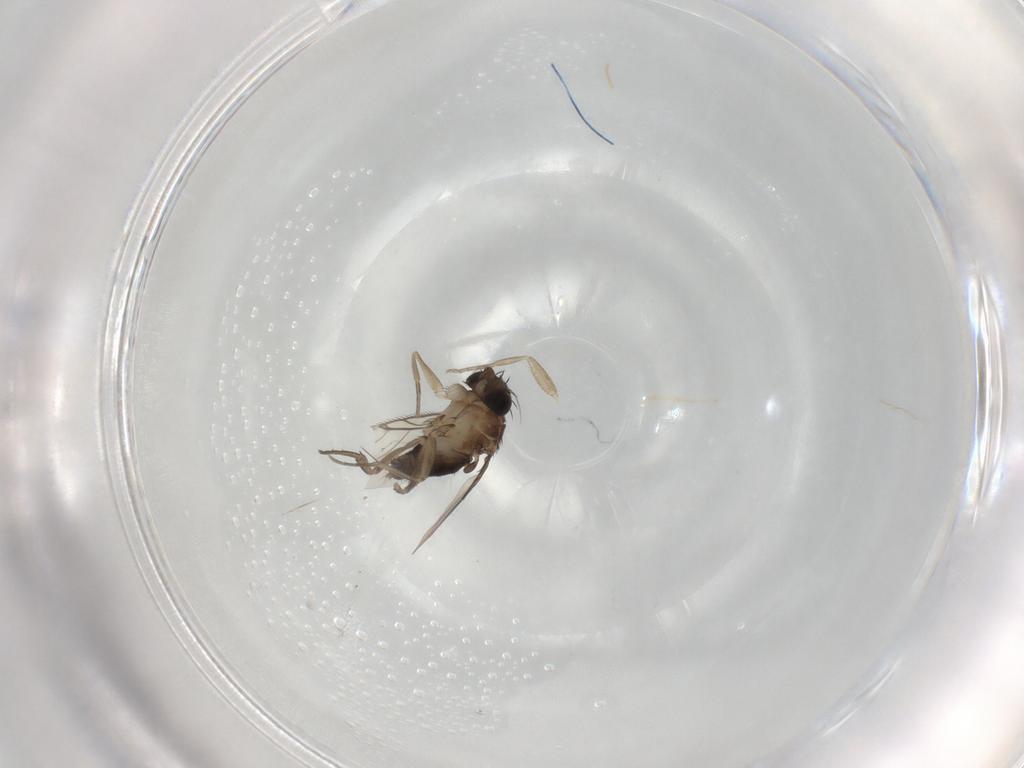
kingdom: Animalia
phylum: Arthropoda
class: Insecta
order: Diptera
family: Phoridae
